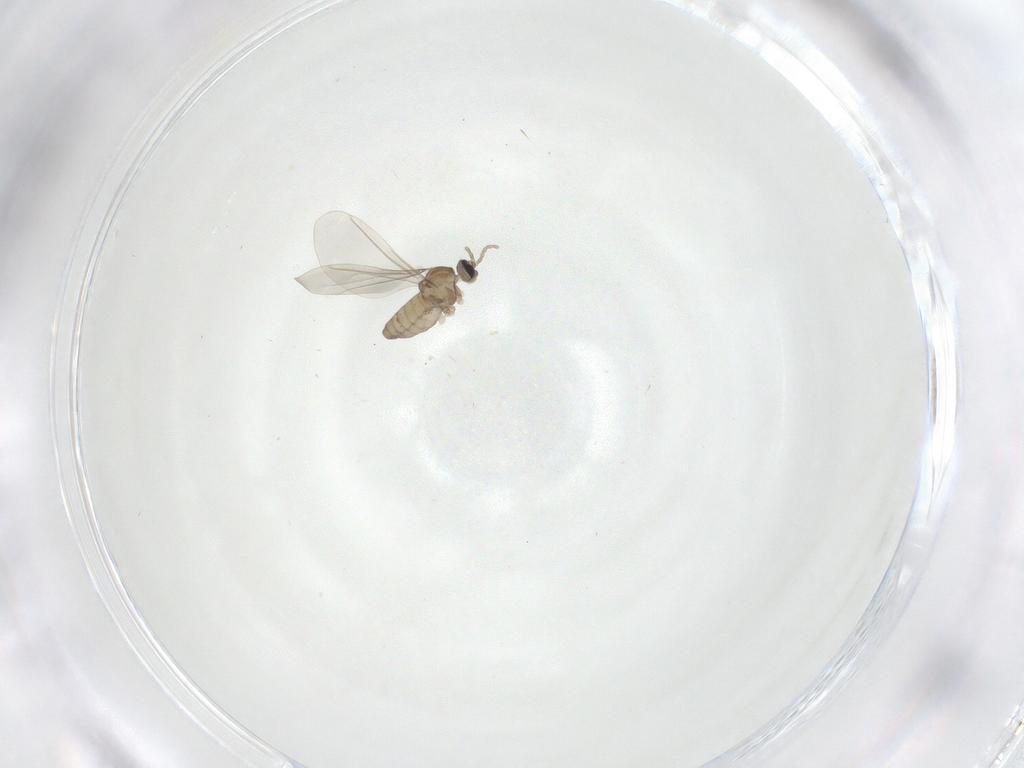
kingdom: Animalia
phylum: Arthropoda
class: Insecta
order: Diptera
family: Cecidomyiidae
